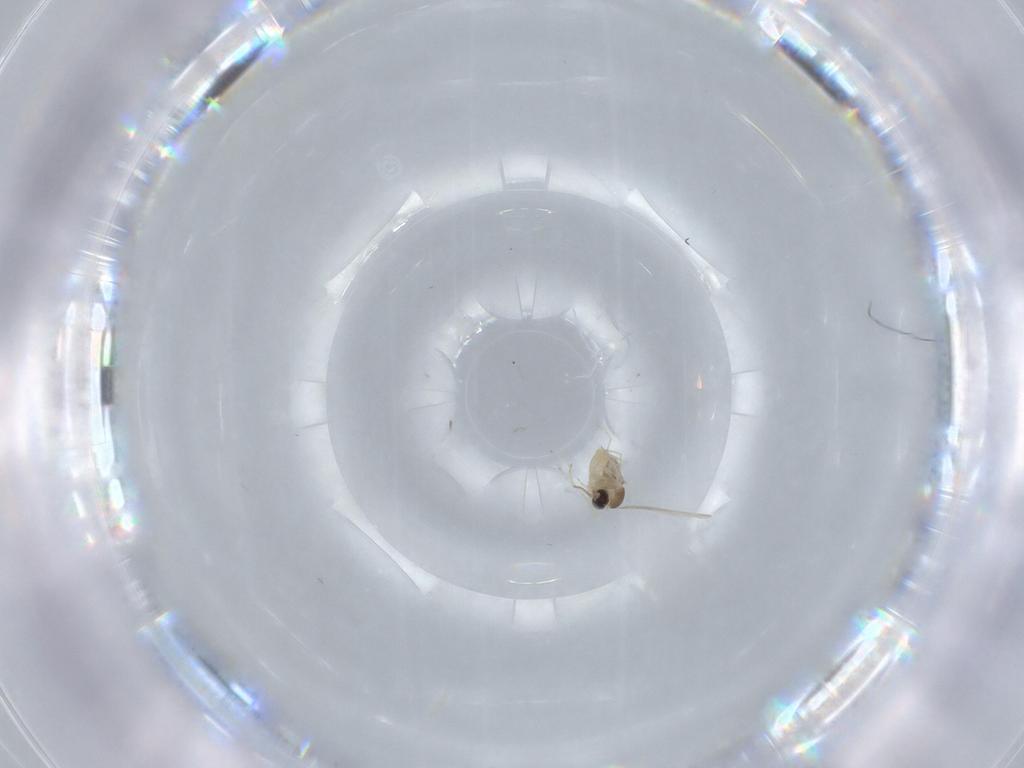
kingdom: Animalia
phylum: Arthropoda
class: Insecta
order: Diptera
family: Cecidomyiidae
